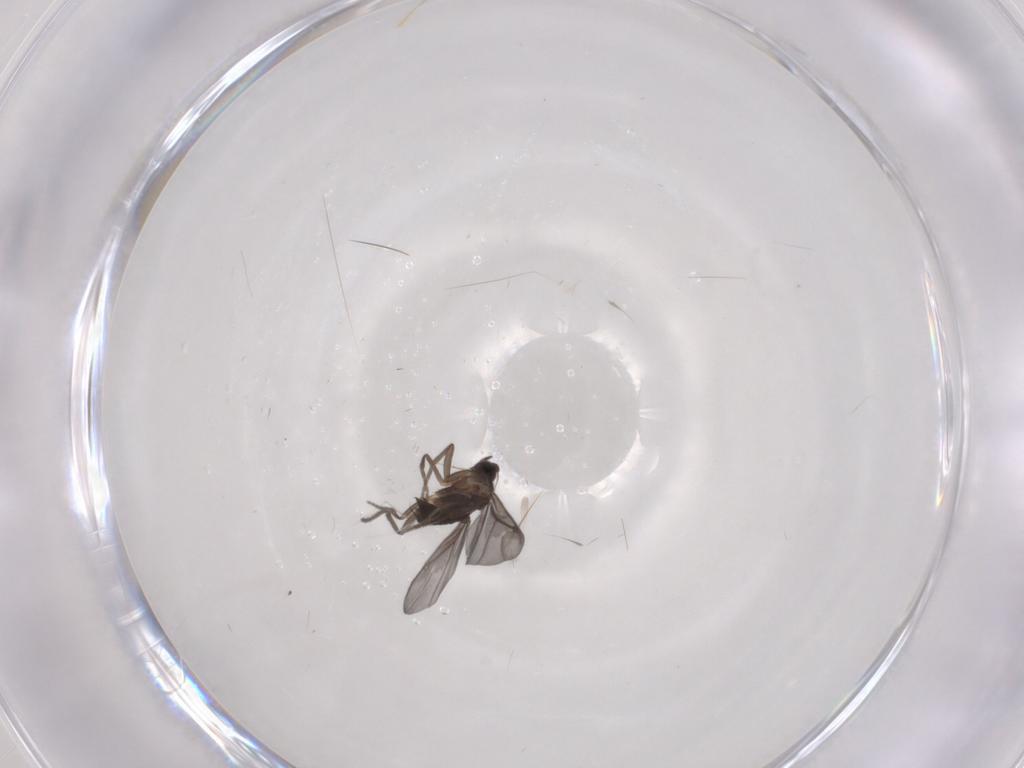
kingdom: Animalia
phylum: Arthropoda
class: Insecta
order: Diptera
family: Phoridae
